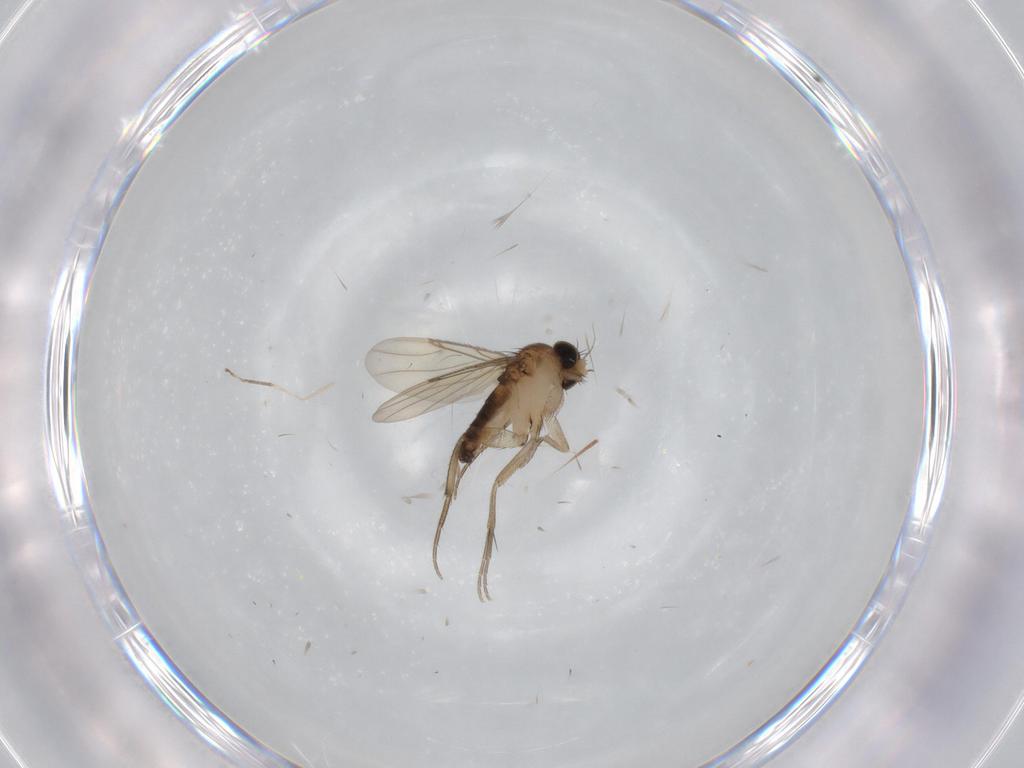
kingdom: Animalia
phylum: Arthropoda
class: Insecta
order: Diptera
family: Phoridae
